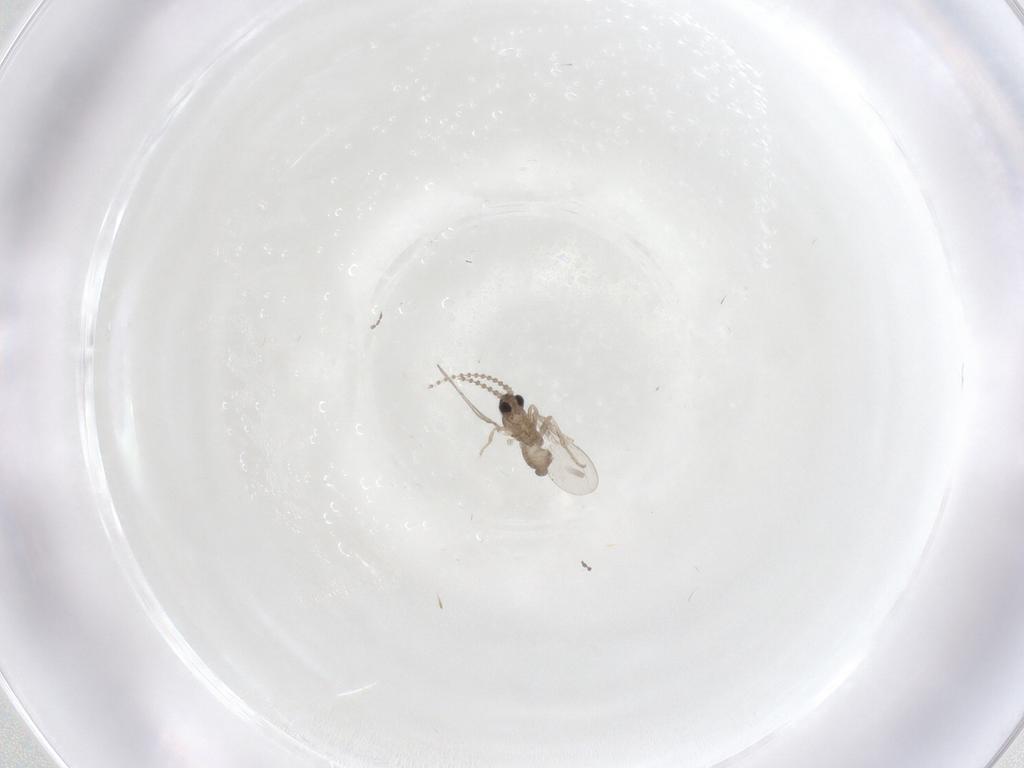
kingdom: Animalia
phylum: Arthropoda
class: Insecta
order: Diptera
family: Cecidomyiidae
